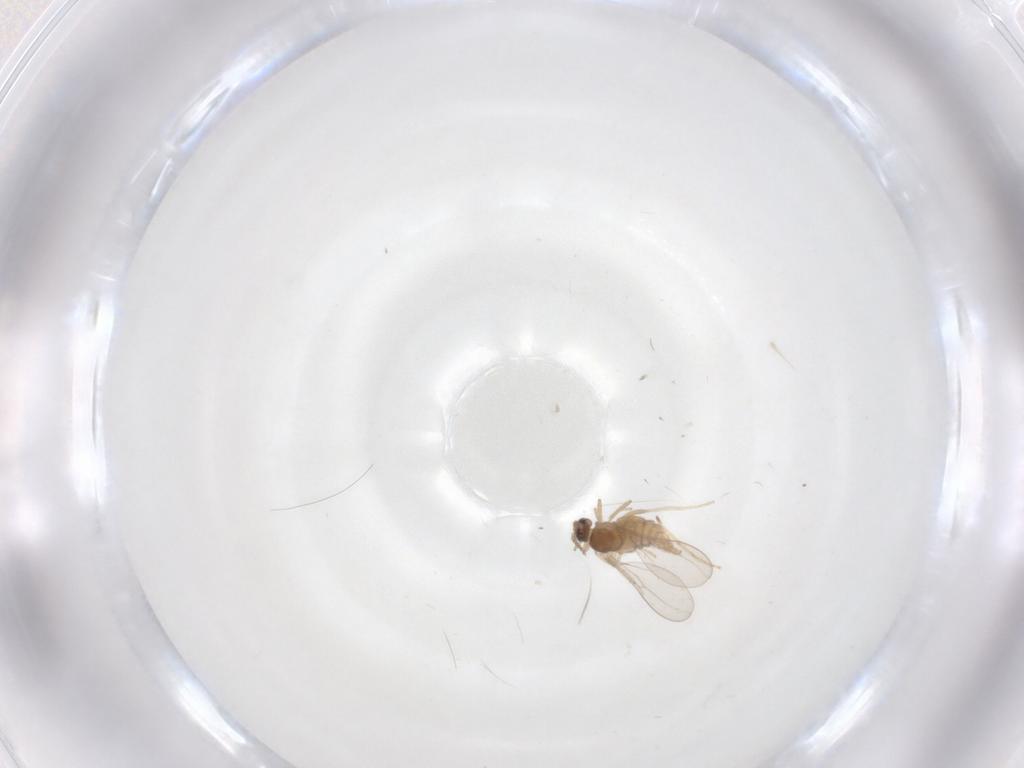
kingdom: Animalia
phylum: Arthropoda
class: Insecta
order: Diptera
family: Cecidomyiidae
